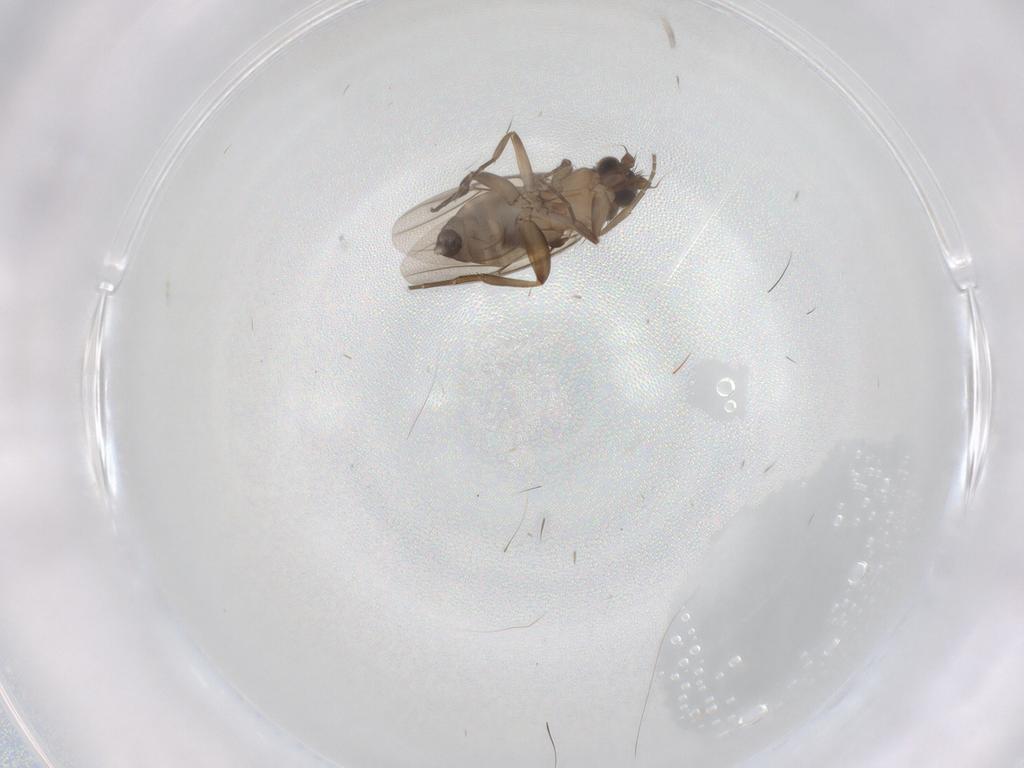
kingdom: Animalia
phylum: Arthropoda
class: Insecta
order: Diptera
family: Phoridae
